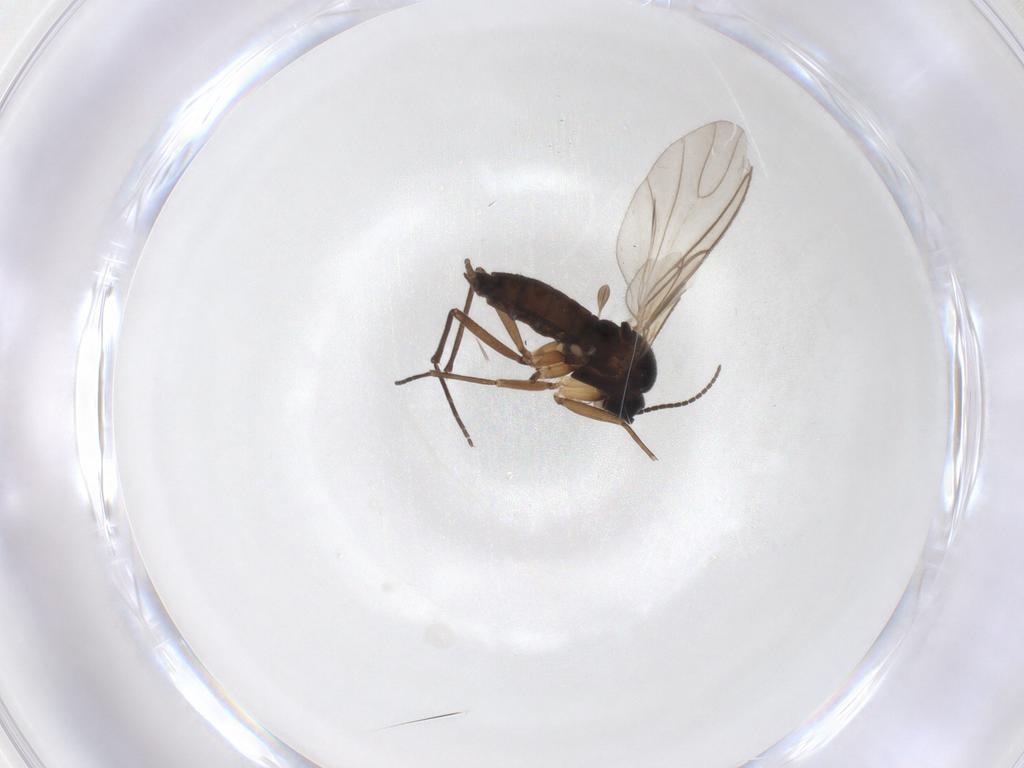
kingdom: Animalia
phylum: Arthropoda
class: Insecta
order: Diptera
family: Sciaridae
